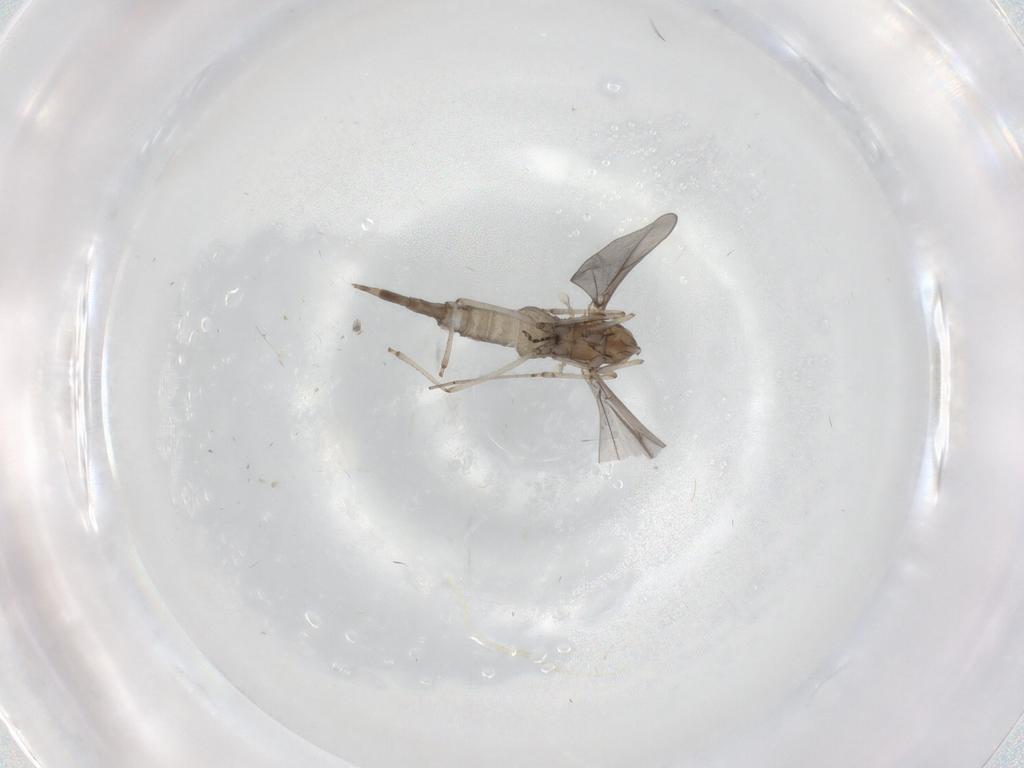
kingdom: Animalia
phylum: Arthropoda
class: Insecta
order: Diptera
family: Cecidomyiidae
